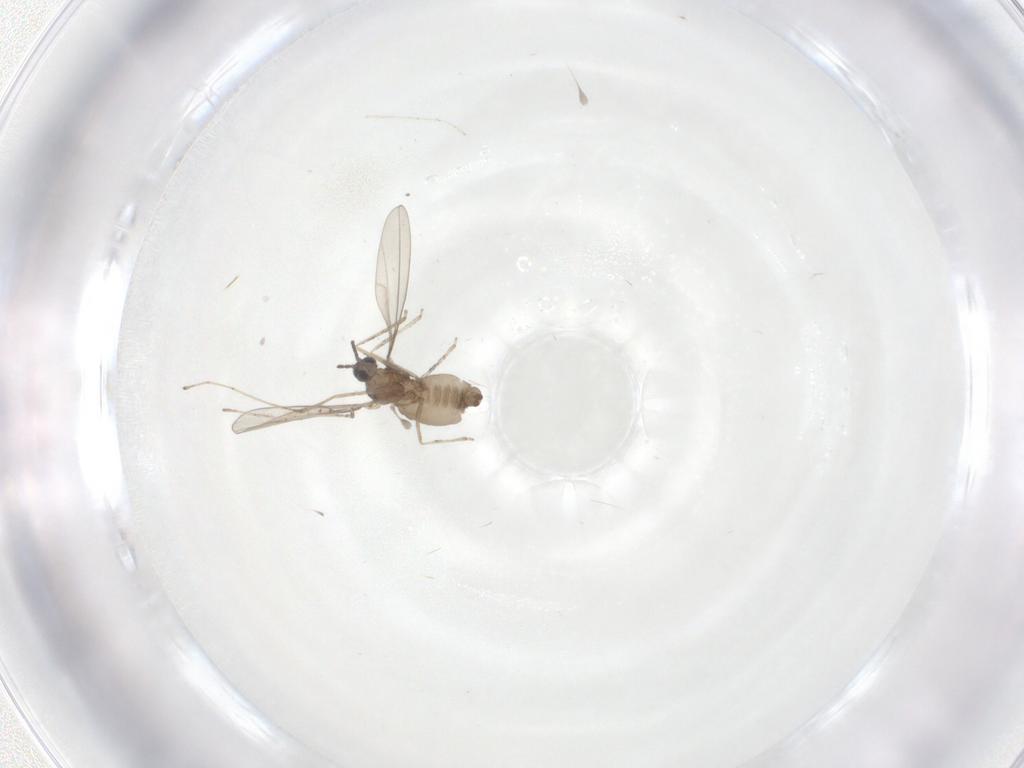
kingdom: Animalia
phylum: Arthropoda
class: Insecta
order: Diptera
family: Cecidomyiidae
